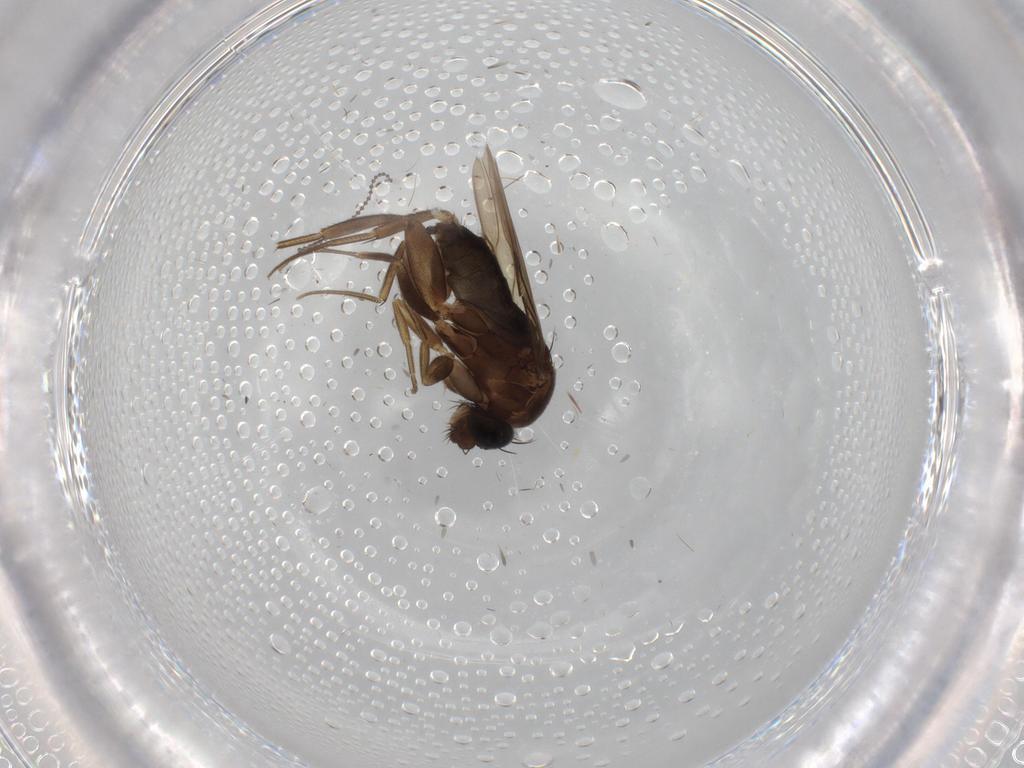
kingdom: Animalia
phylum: Arthropoda
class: Insecta
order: Diptera
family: Phoridae
